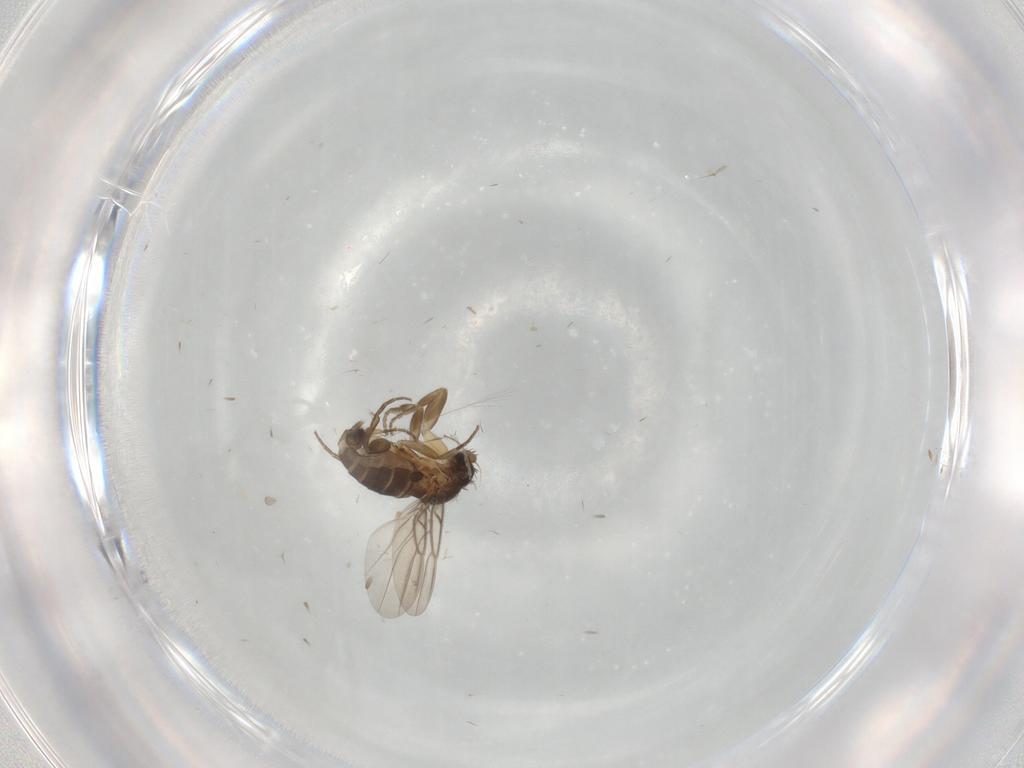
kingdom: Animalia
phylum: Arthropoda
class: Insecta
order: Diptera
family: Phoridae
